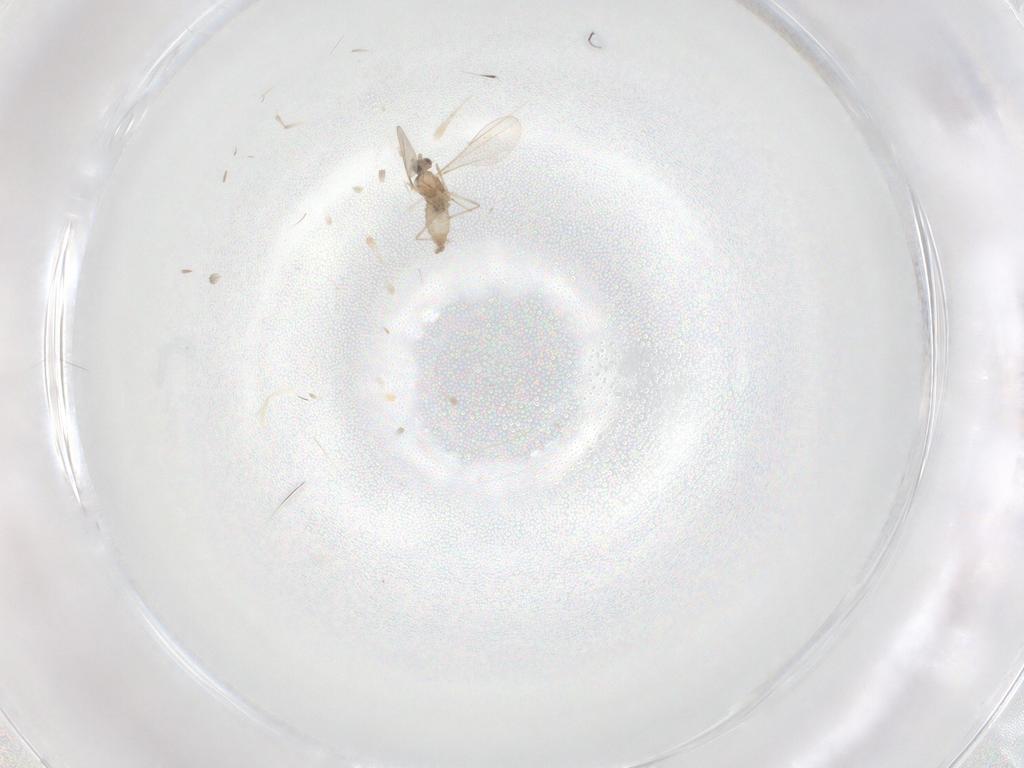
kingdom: Animalia
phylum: Arthropoda
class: Insecta
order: Diptera
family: Cecidomyiidae
